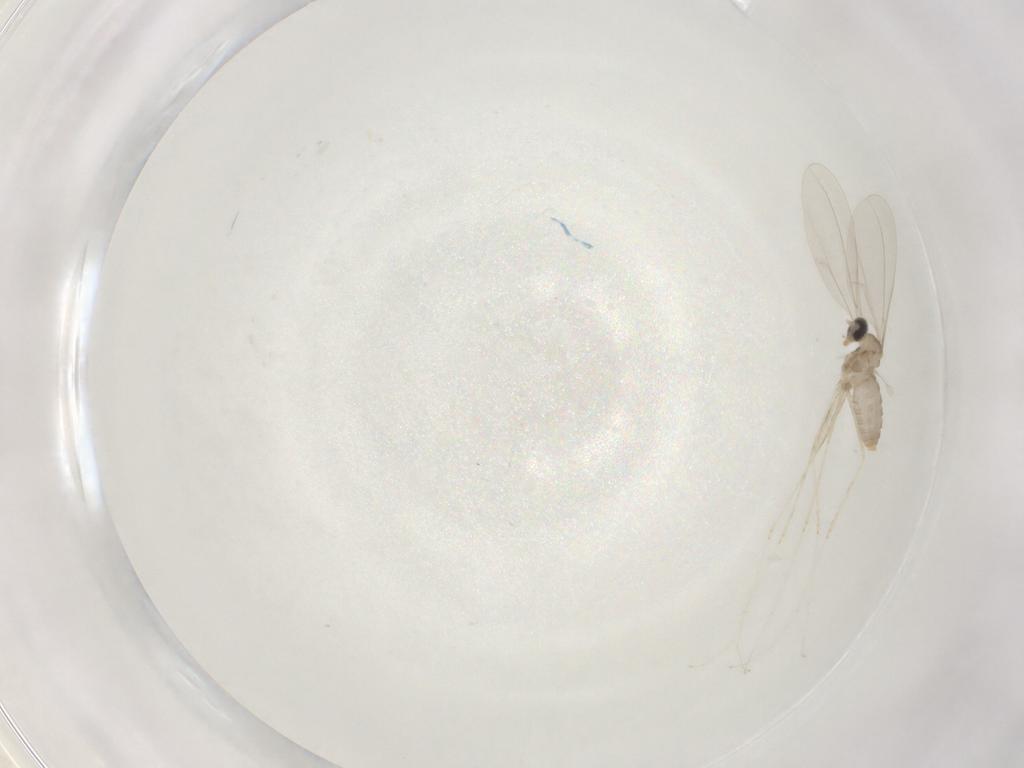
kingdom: Animalia
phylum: Arthropoda
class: Insecta
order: Diptera
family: Cecidomyiidae
